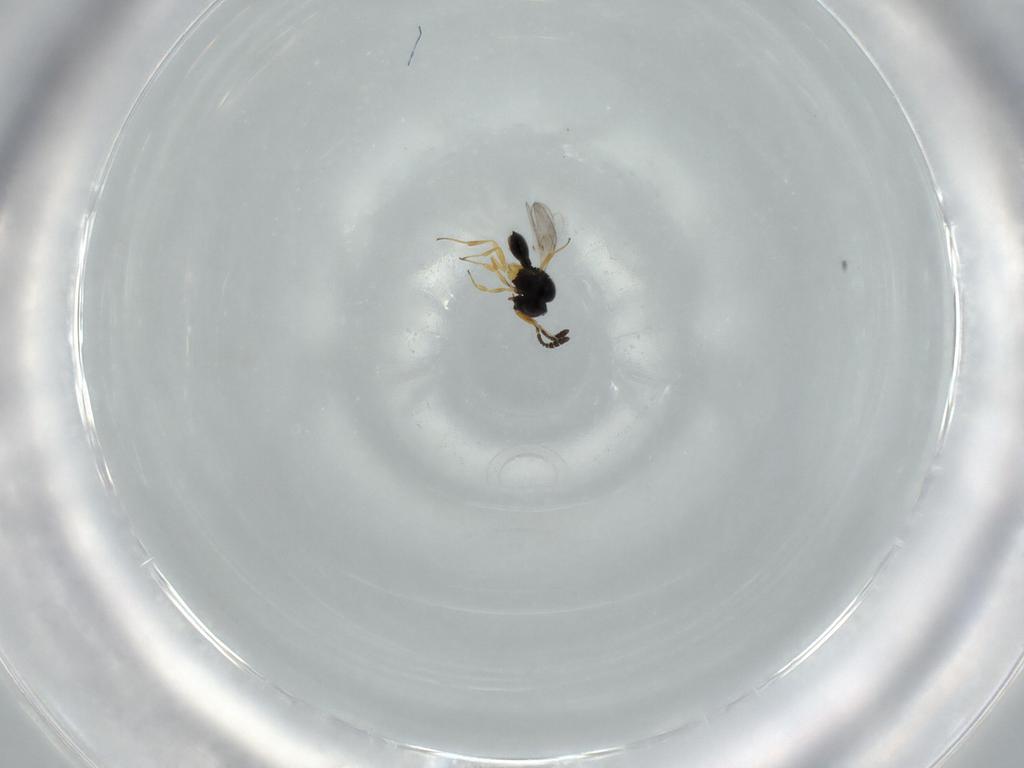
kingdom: Animalia
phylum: Arthropoda
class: Insecta
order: Hymenoptera
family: Scelionidae
